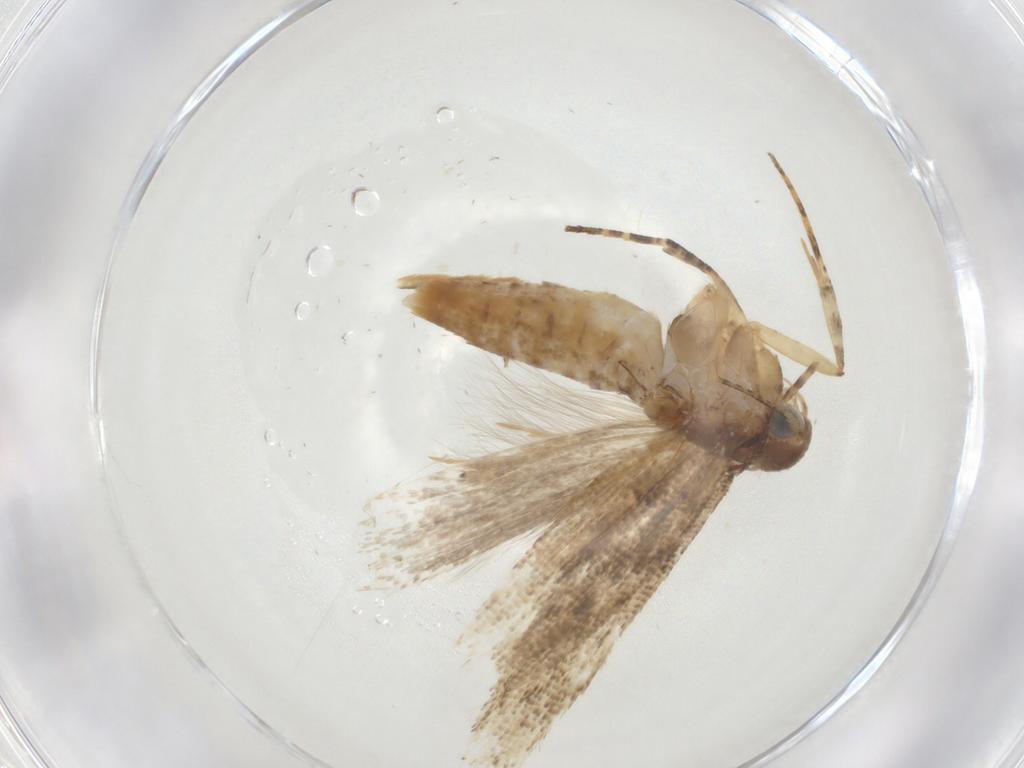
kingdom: Animalia
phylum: Arthropoda
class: Insecta
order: Lepidoptera
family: Gelechiidae
